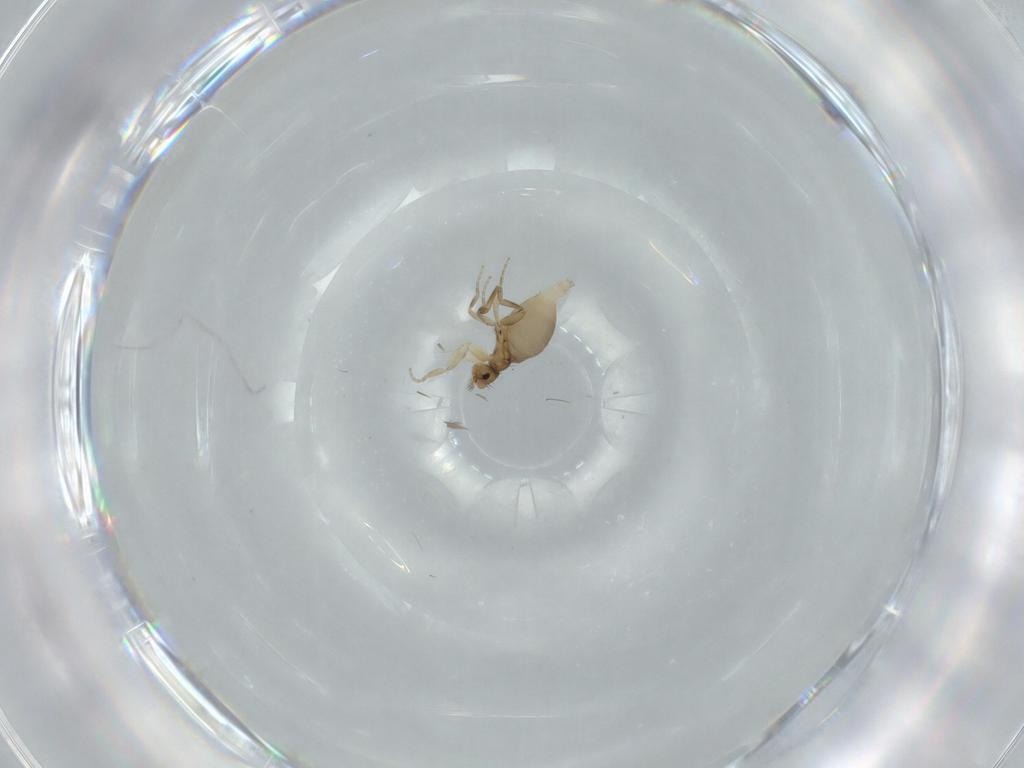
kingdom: Animalia
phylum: Arthropoda
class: Insecta
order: Diptera
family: Phoridae
